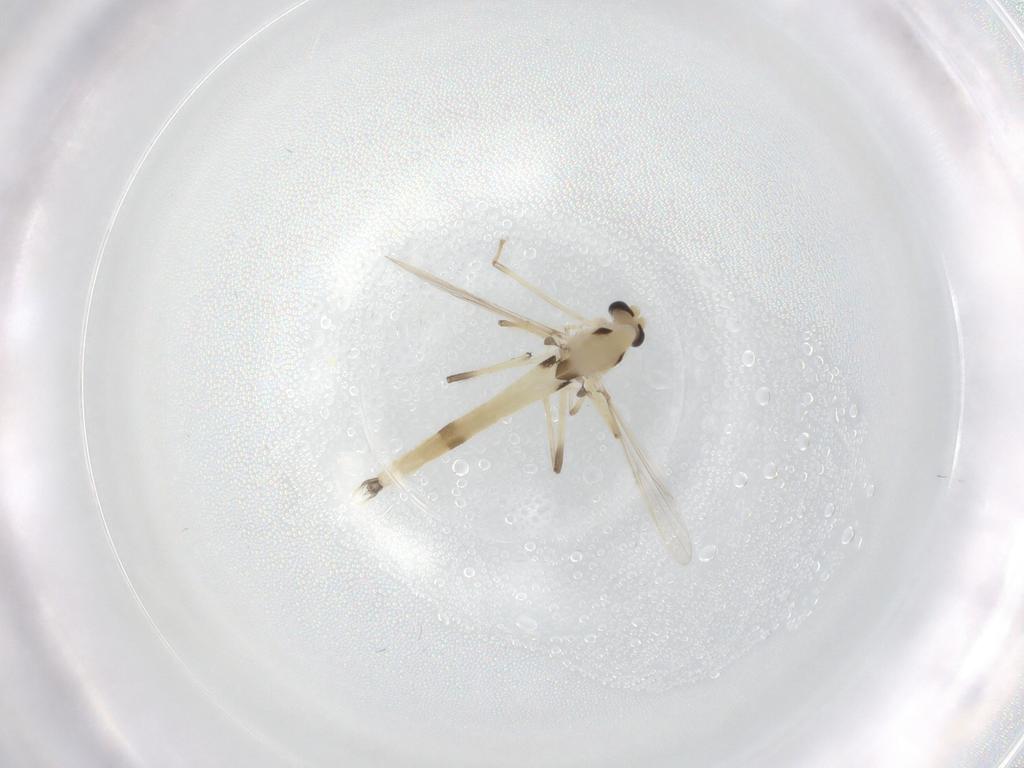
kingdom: Animalia
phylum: Arthropoda
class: Insecta
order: Diptera
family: Chironomidae
